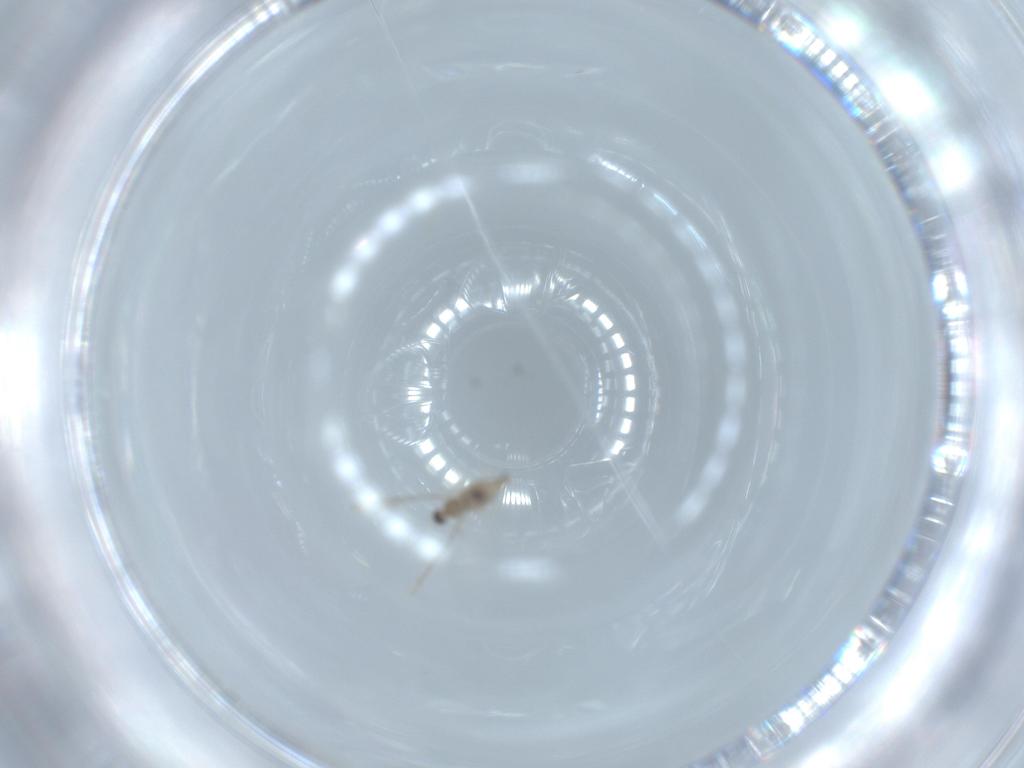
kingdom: Animalia
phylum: Arthropoda
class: Insecta
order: Diptera
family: Cecidomyiidae
